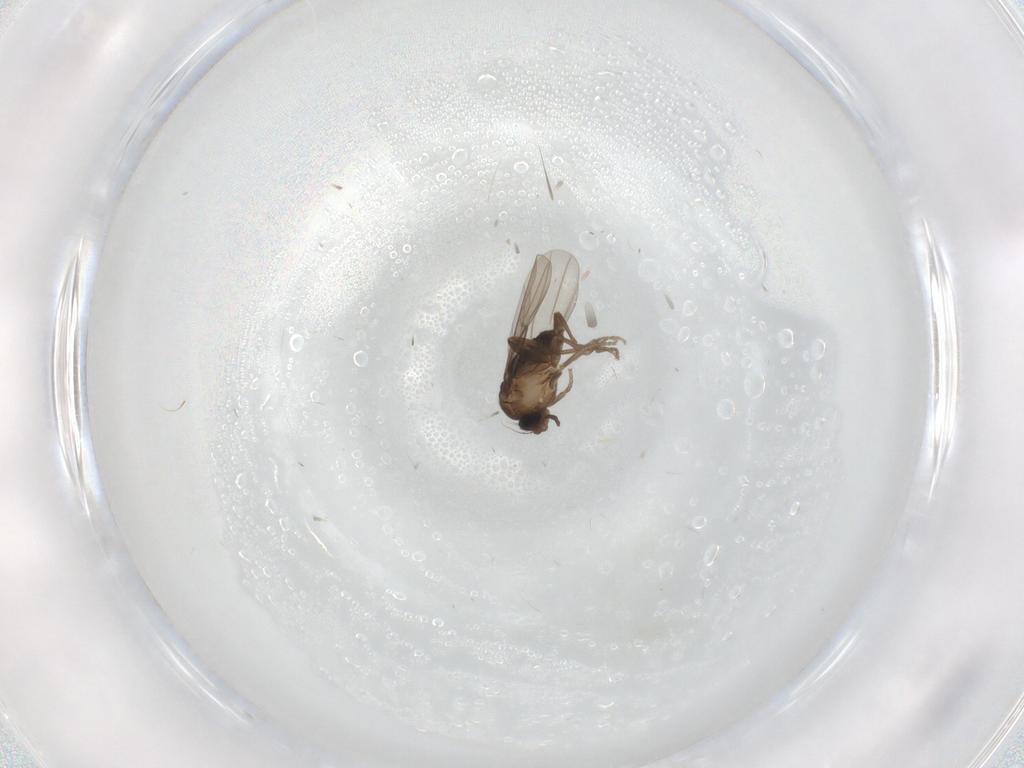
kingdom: Animalia
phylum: Arthropoda
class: Insecta
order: Diptera
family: Cecidomyiidae
